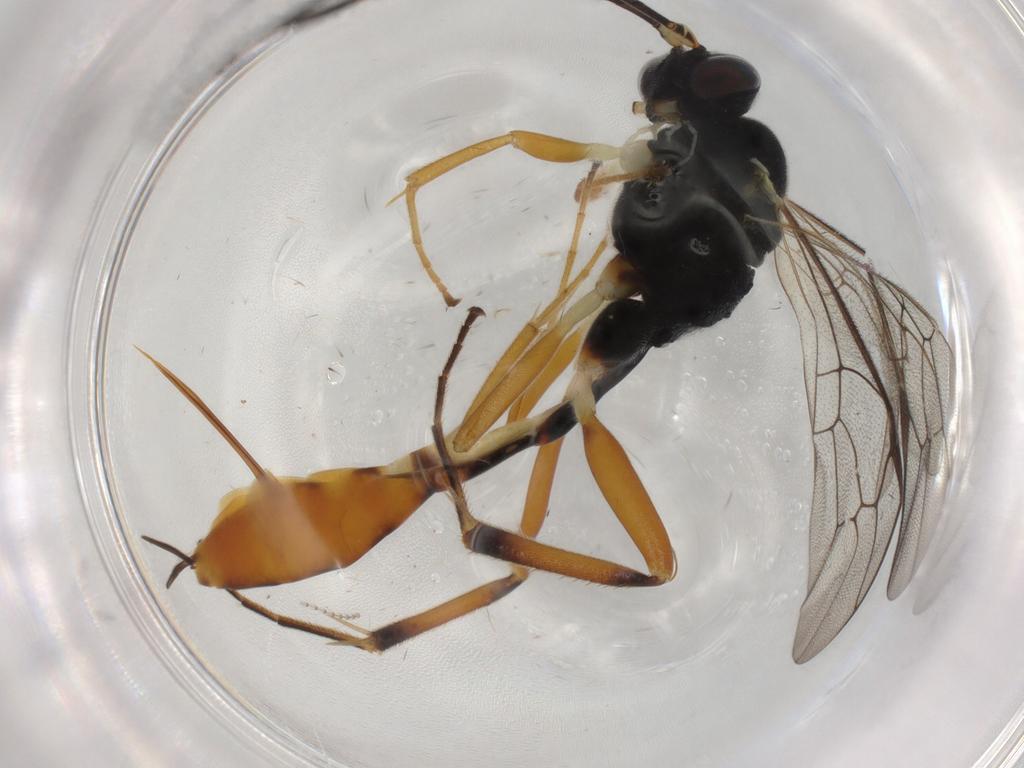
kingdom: Animalia
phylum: Arthropoda
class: Insecta
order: Hymenoptera
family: Ichneumonidae
